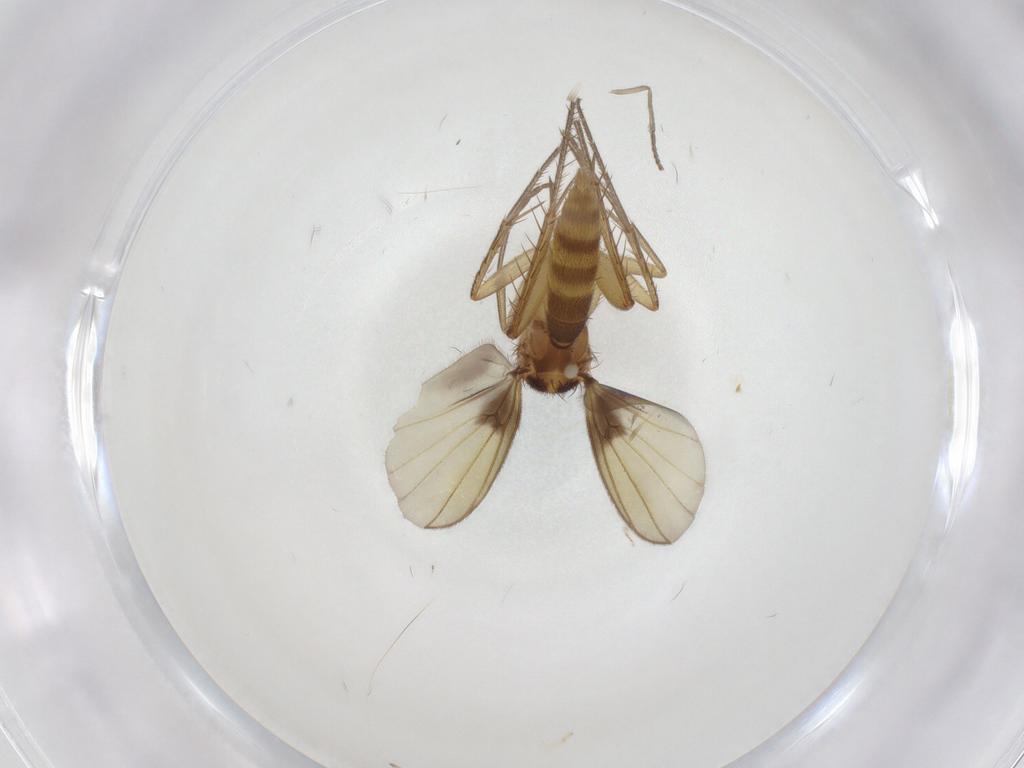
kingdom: Animalia
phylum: Arthropoda
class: Insecta
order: Diptera
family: Mycetophilidae
